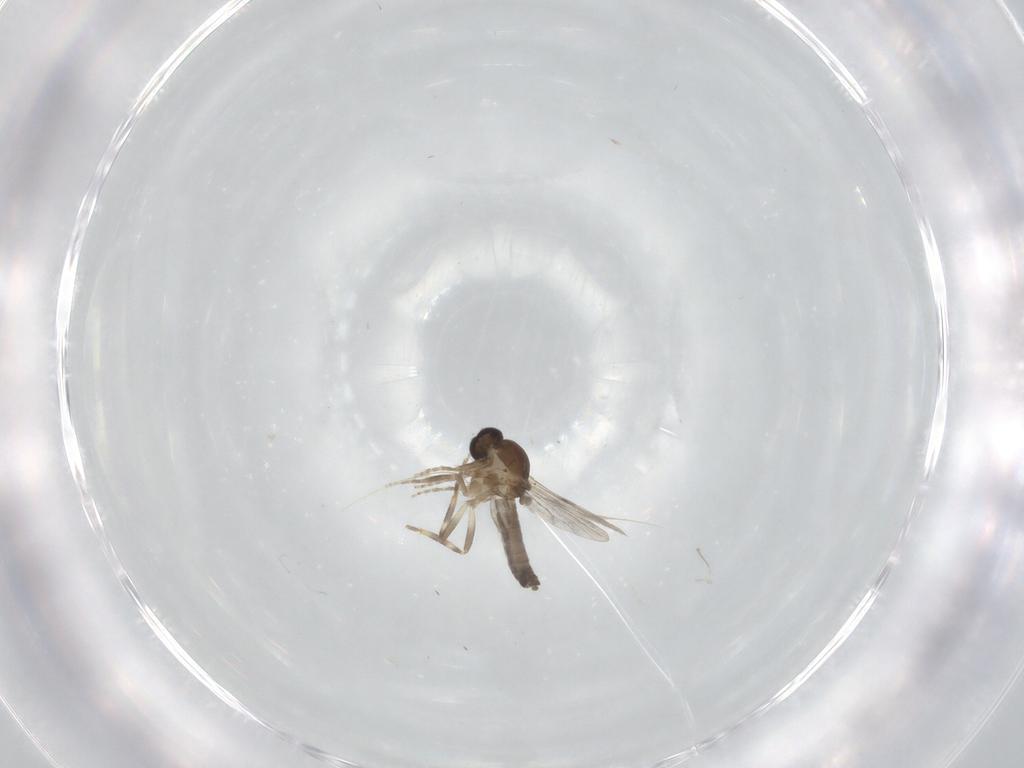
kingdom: Animalia
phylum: Arthropoda
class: Insecta
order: Diptera
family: Ceratopogonidae
